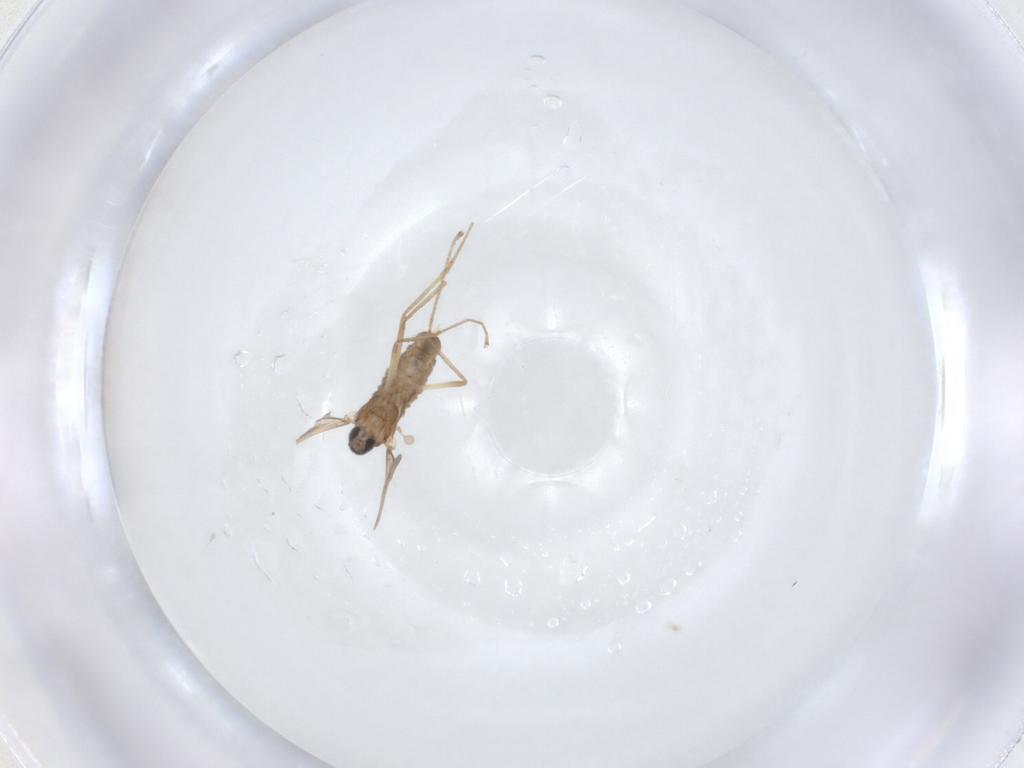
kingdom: Animalia
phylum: Arthropoda
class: Insecta
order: Diptera
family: Cecidomyiidae
